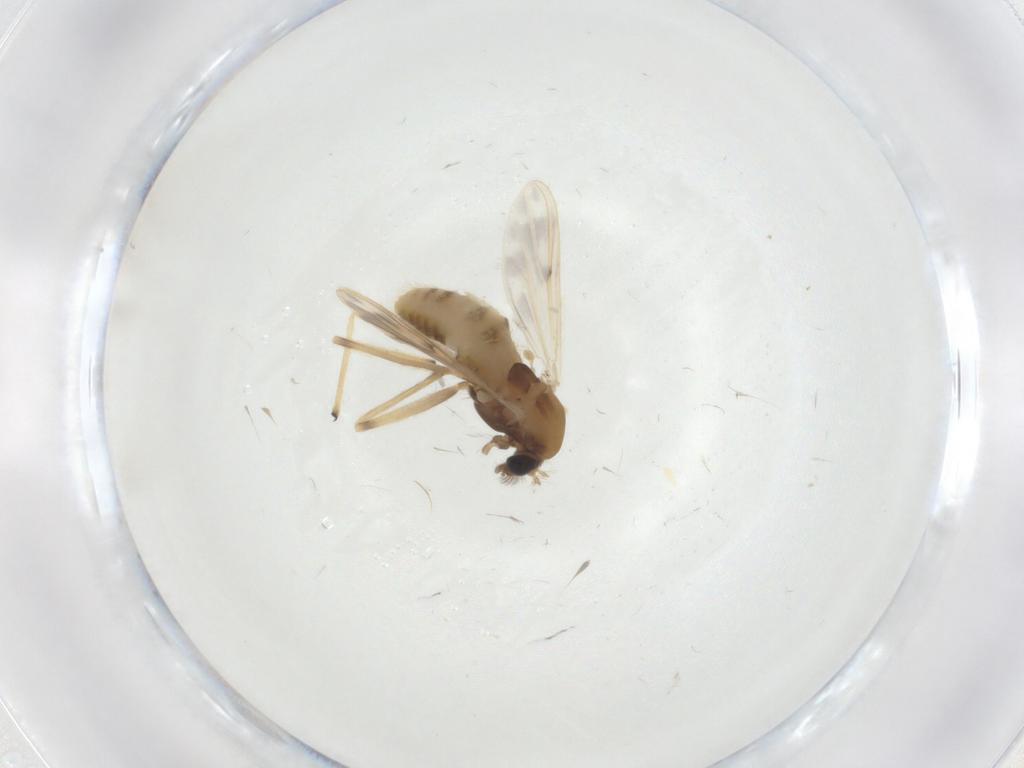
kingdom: Animalia
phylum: Arthropoda
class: Insecta
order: Diptera
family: Chironomidae
